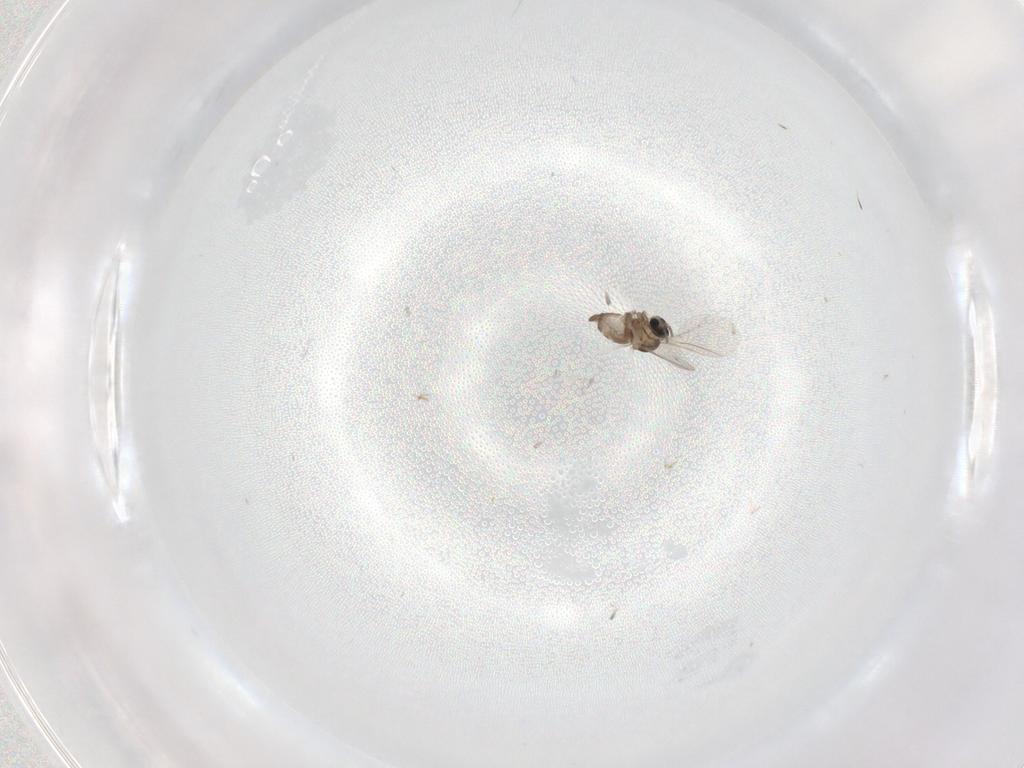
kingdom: Animalia
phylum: Arthropoda
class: Insecta
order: Diptera
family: Cecidomyiidae
